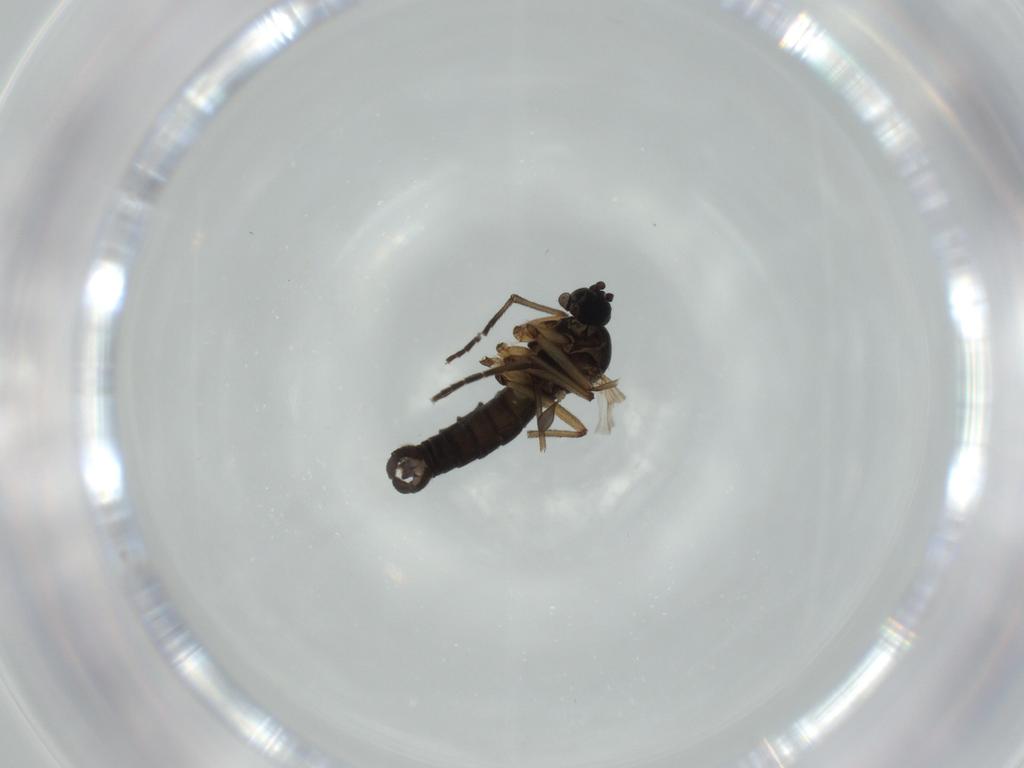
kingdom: Animalia
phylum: Arthropoda
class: Insecta
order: Diptera
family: Sciaridae
